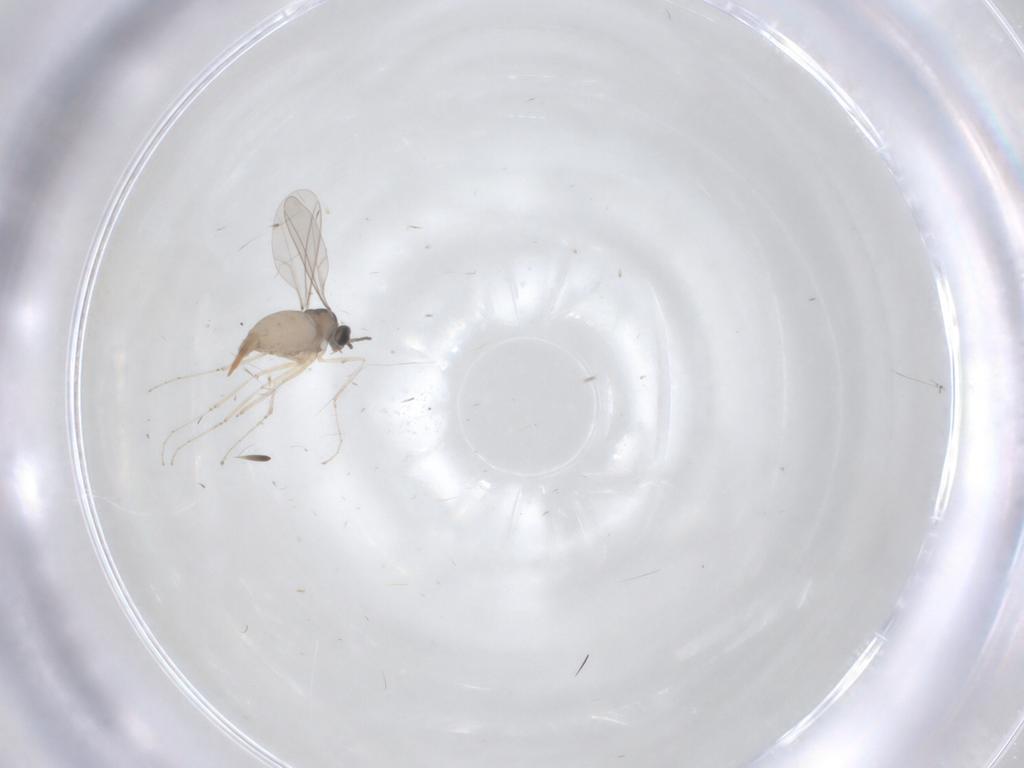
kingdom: Animalia
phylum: Arthropoda
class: Insecta
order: Diptera
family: Cecidomyiidae
